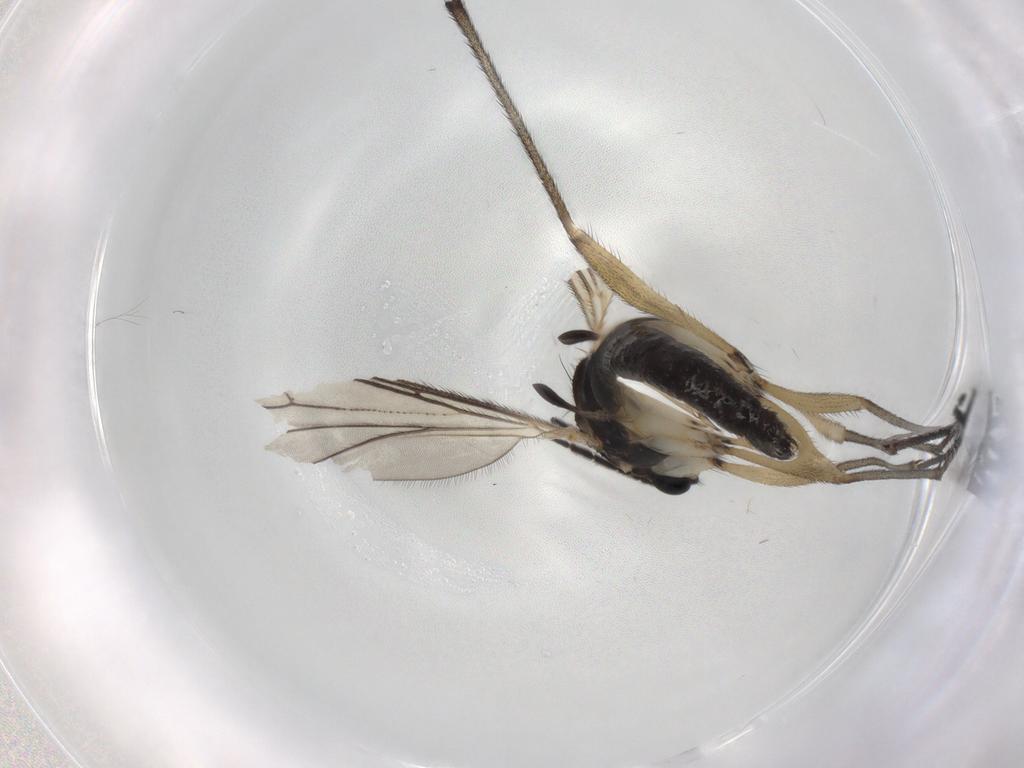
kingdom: Animalia
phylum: Arthropoda
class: Insecta
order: Diptera
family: Sciaridae
